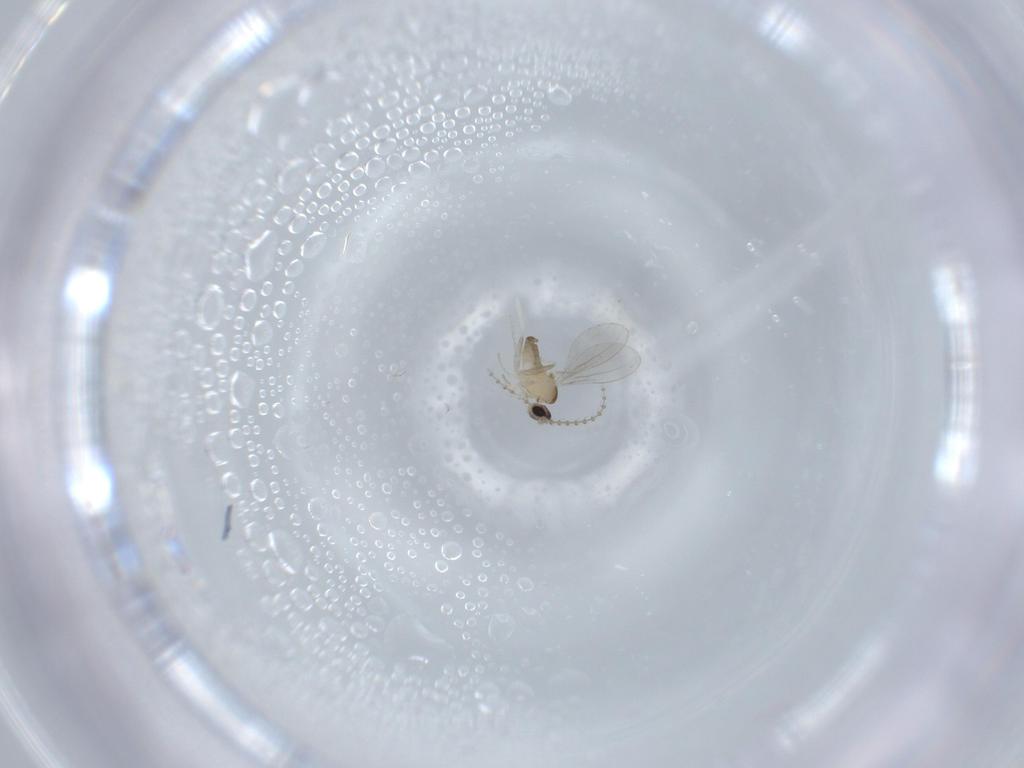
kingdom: Animalia
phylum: Arthropoda
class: Insecta
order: Diptera
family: Cecidomyiidae
